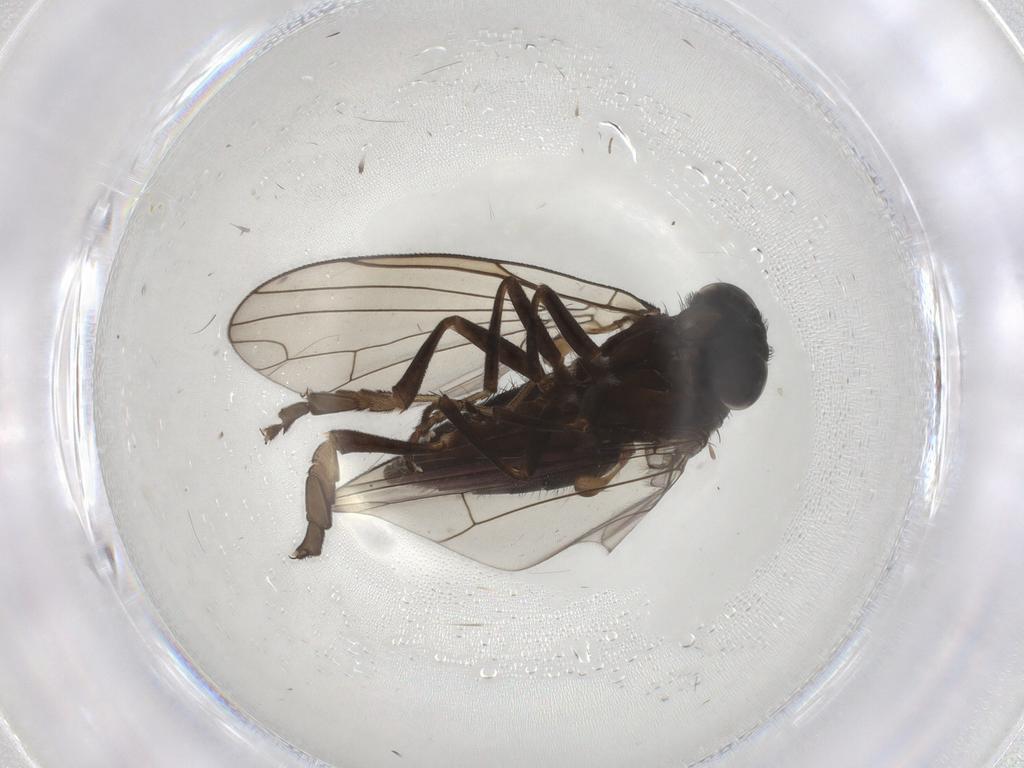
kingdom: Animalia
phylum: Arthropoda
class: Insecta
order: Diptera
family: Platypezidae
